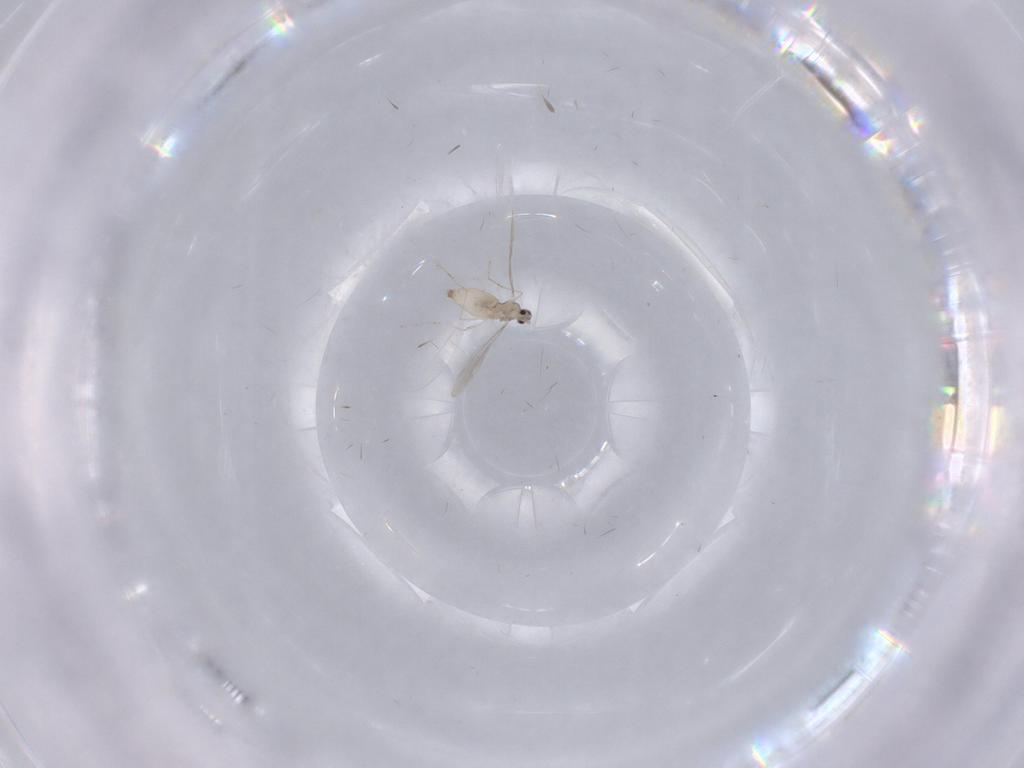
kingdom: Animalia
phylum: Arthropoda
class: Insecta
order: Diptera
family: Cecidomyiidae
